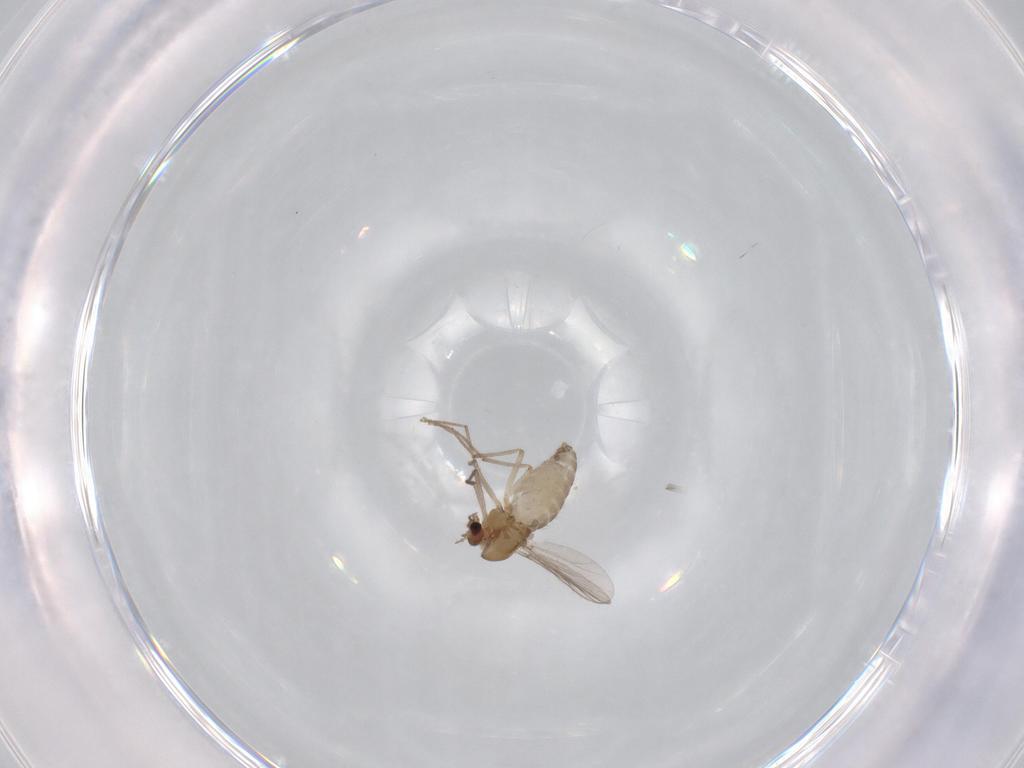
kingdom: Animalia
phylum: Arthropoda
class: Insecta
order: Diptera
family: Chironomidae
